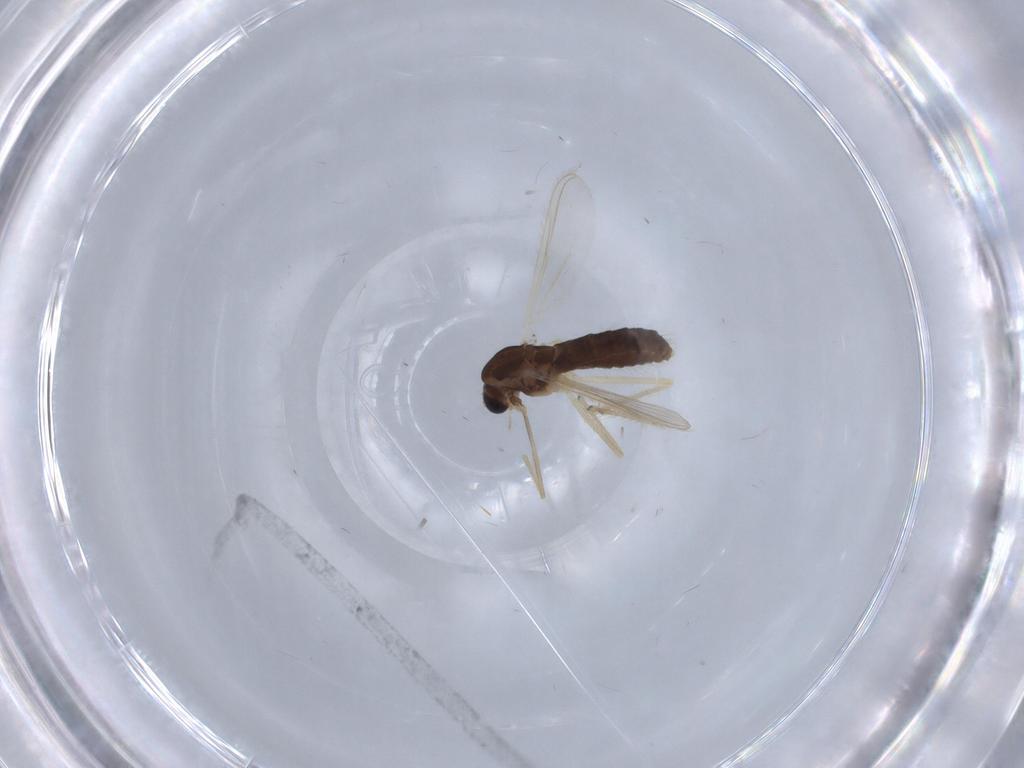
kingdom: Animalia
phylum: Arthropoda
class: Insecta
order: Diptera
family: Chironomidae
